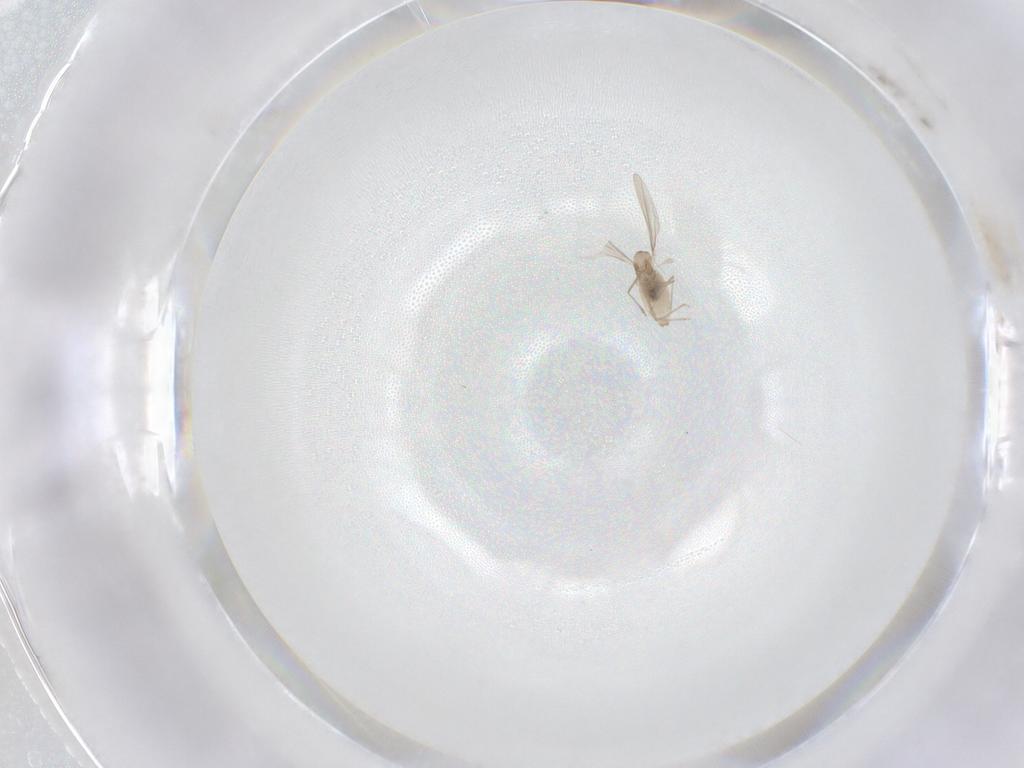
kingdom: Animalia
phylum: Arthropoda
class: Insecta
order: Diptera
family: Cecidomyiidae
